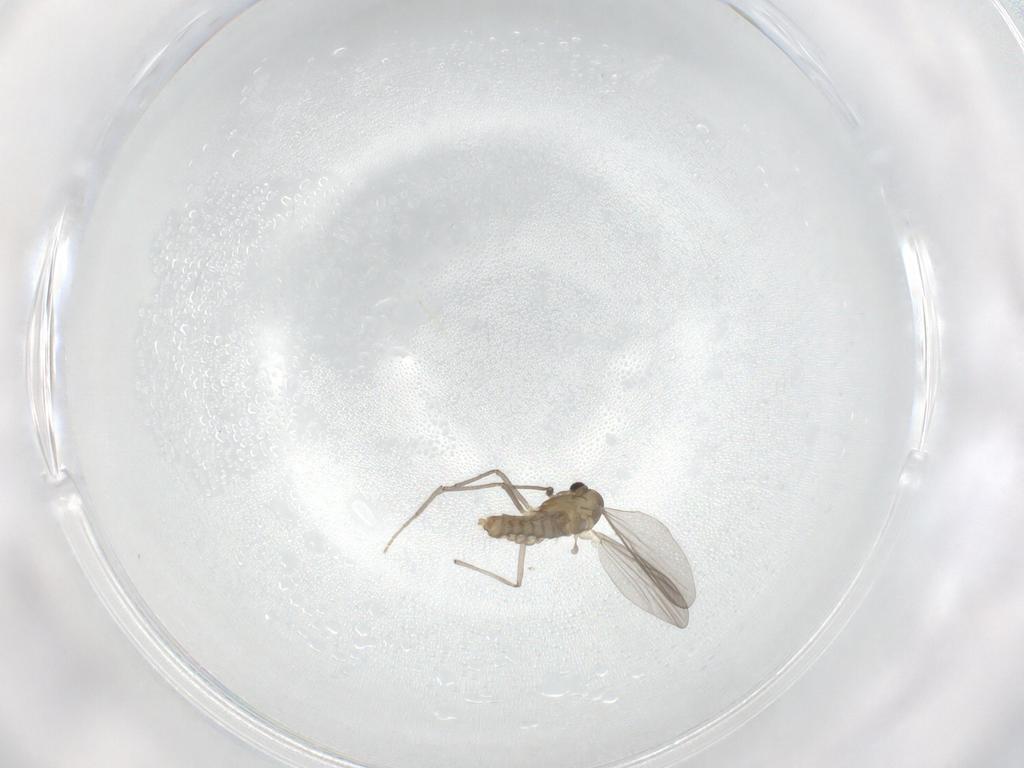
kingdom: Animalia
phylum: Arthropoda
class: Insecta
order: Diptera
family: Chironomidae
